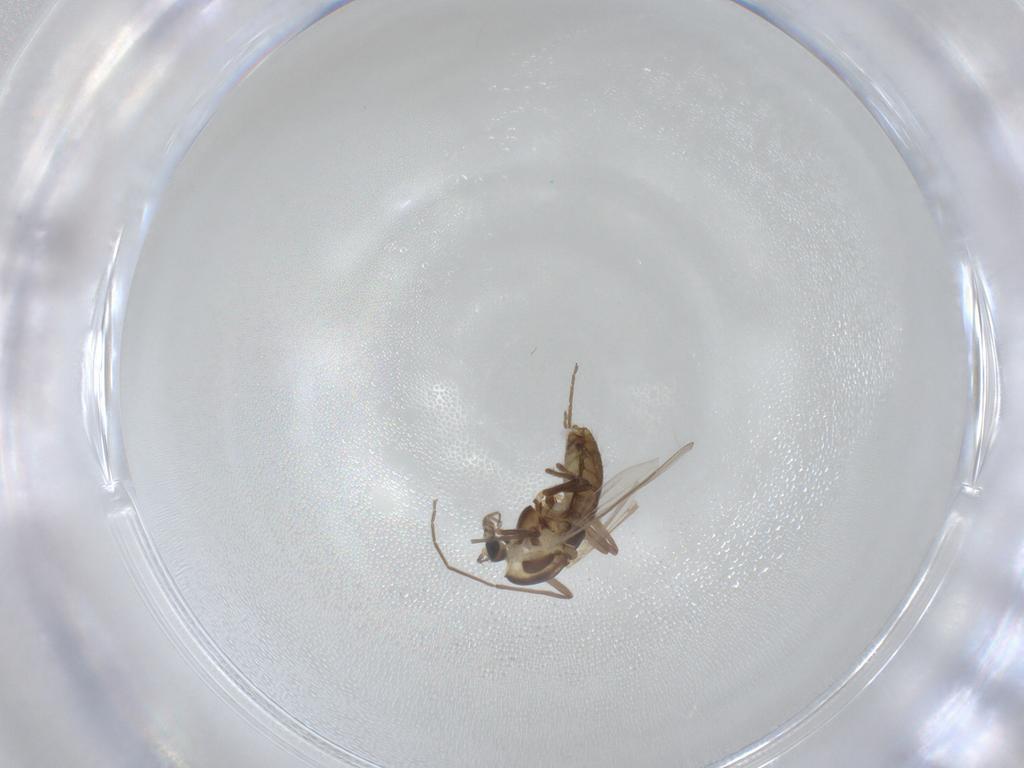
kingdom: Animalia
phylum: Arthropoda
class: Insecta
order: Diptera
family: Chironomidae
